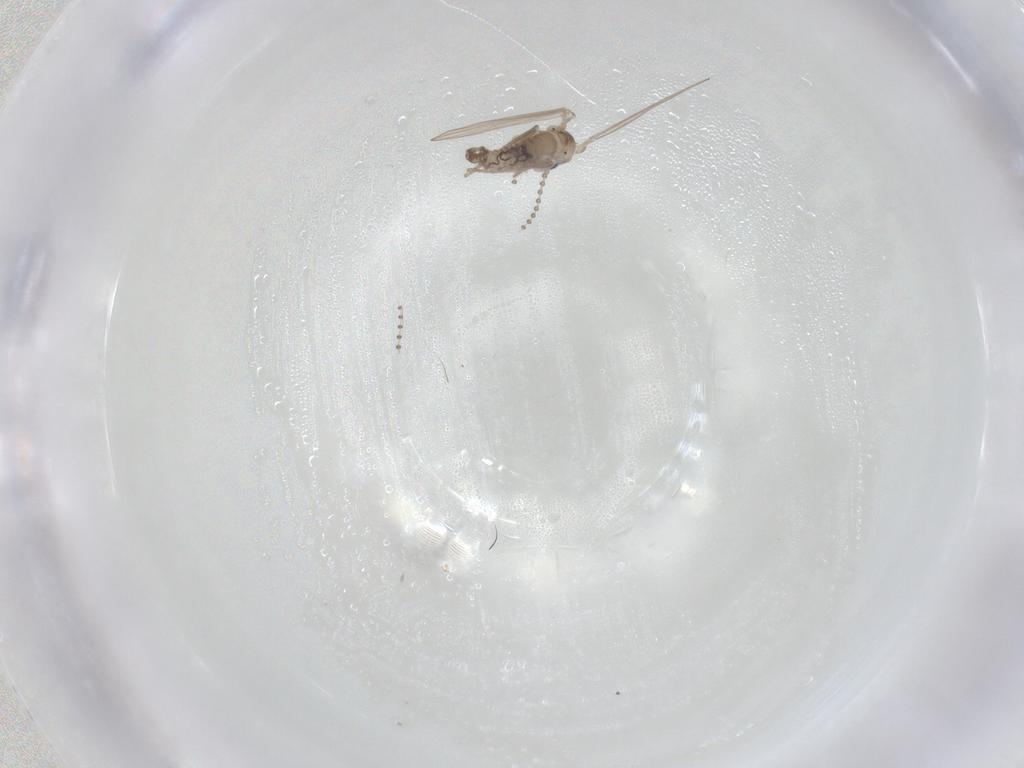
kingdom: Animalia
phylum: Arthropoda
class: Insecta
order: Diptera
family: Psychodidae
